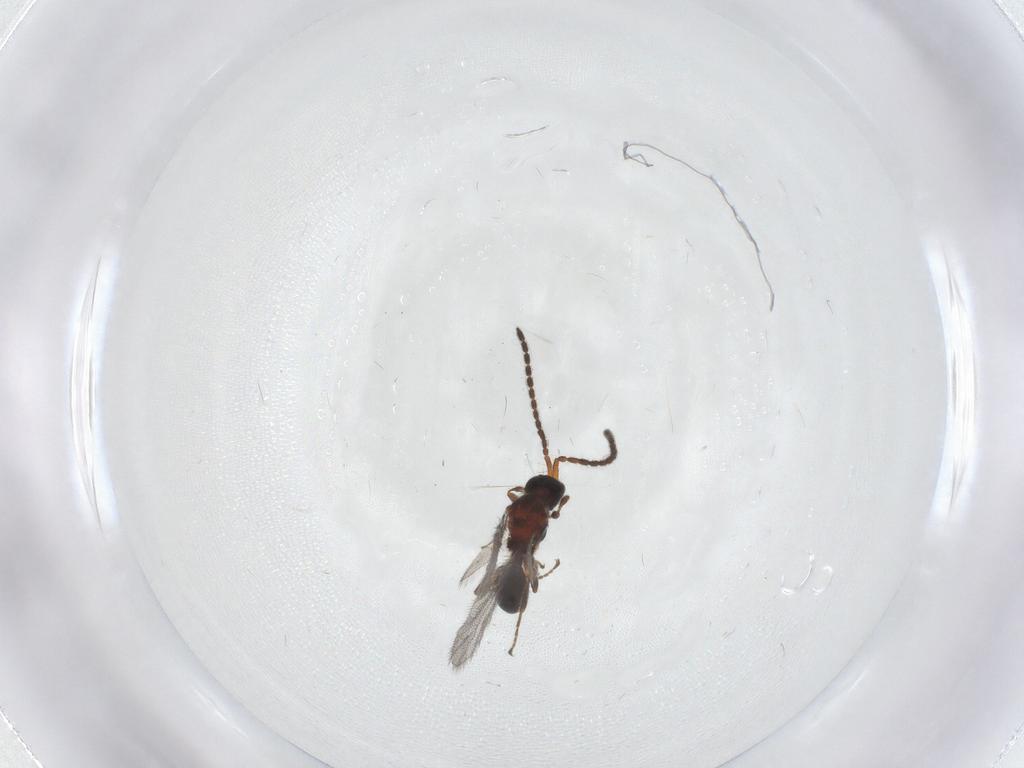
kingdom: Animalia
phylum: Arthropoda
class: Insecta
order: Hymenoptera
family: Diapriidae
